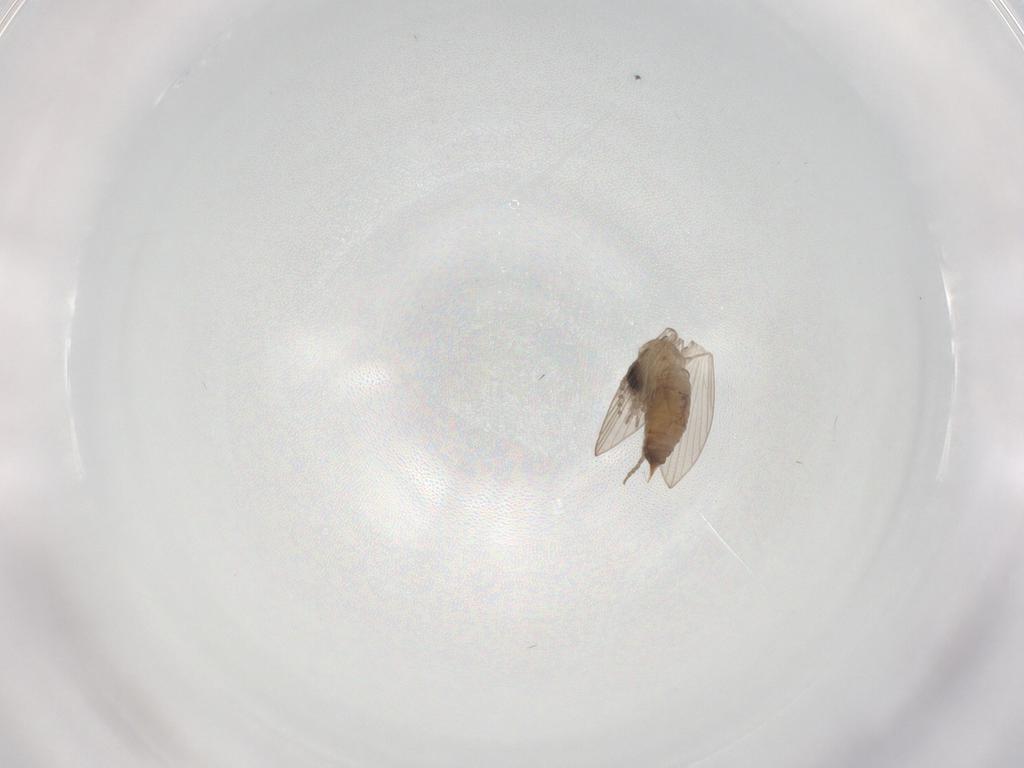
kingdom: Animalia
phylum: Arthropoda
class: Insecta
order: Diptera
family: Psychodidae
